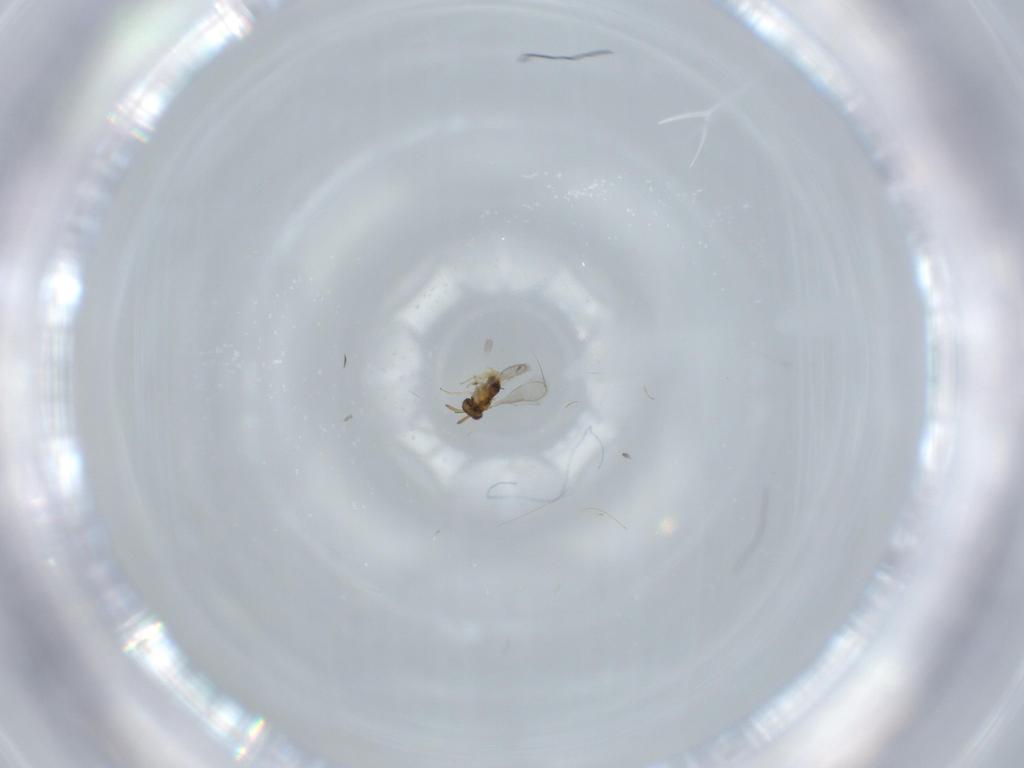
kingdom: Animalia
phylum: Arthropoda
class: Insecta
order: Hymenoptera
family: Aphelinidae
